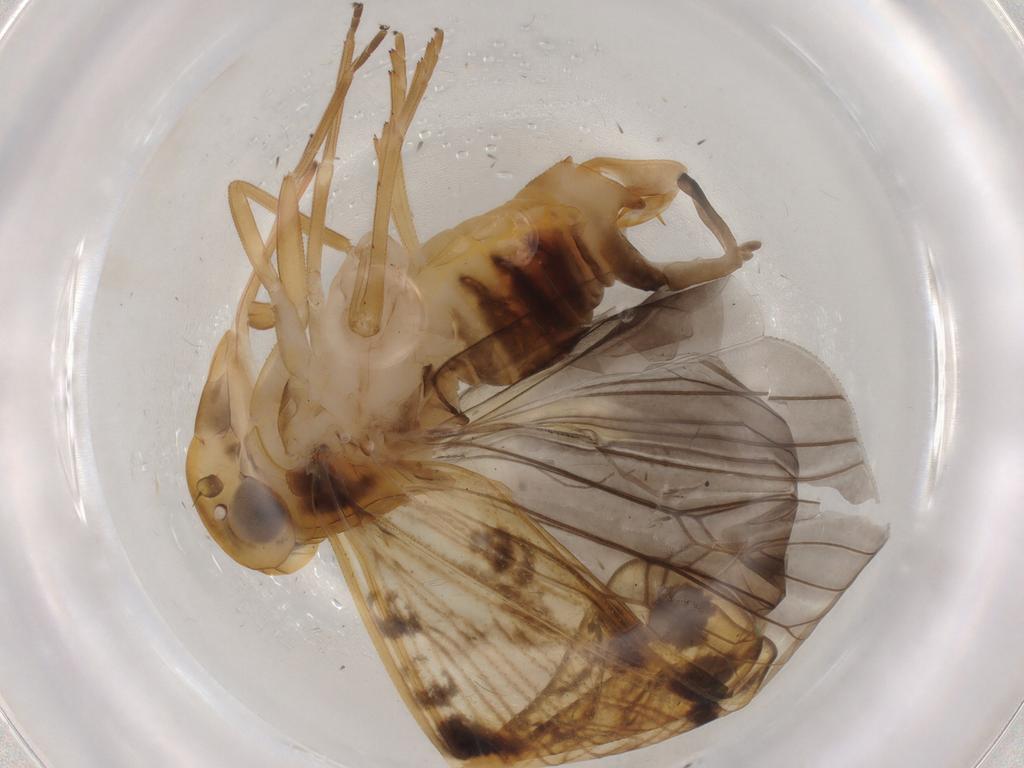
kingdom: Animalia
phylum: Arthropoda
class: Insecta
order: Hemiptera
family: Cixiidae
